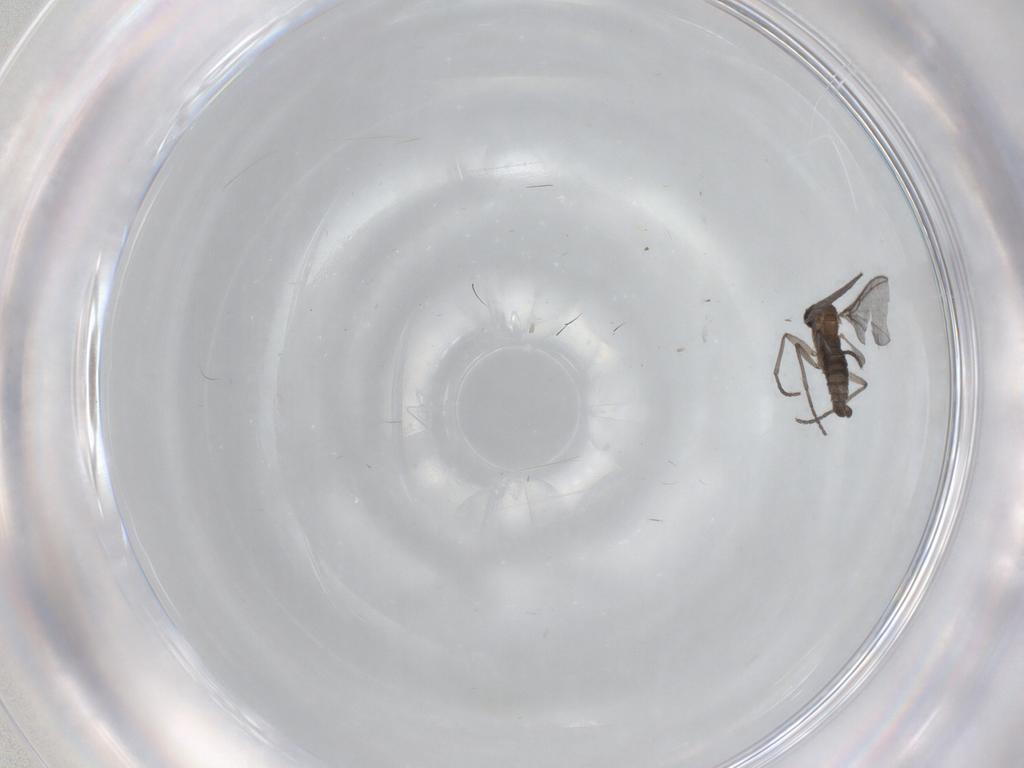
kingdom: Animalia
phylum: Arthropoda
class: Insecta
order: Diptera
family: Sciaridae
